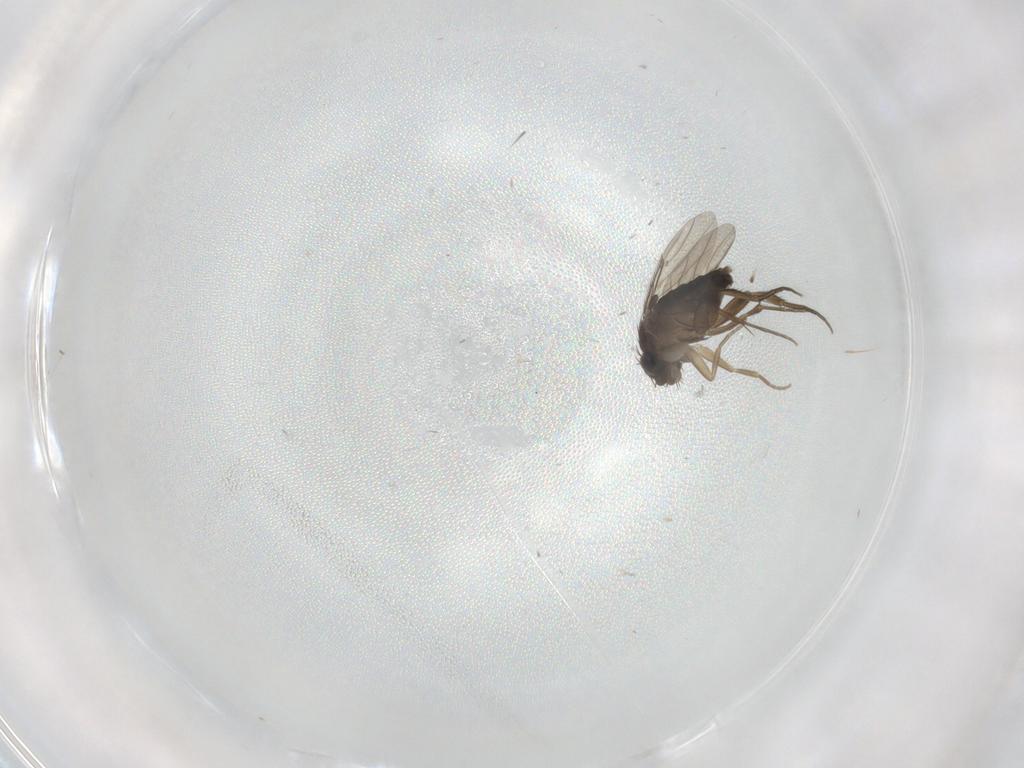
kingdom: Animalia
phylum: Arthropoda
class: Insecta
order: Diptera
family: Phoridae
